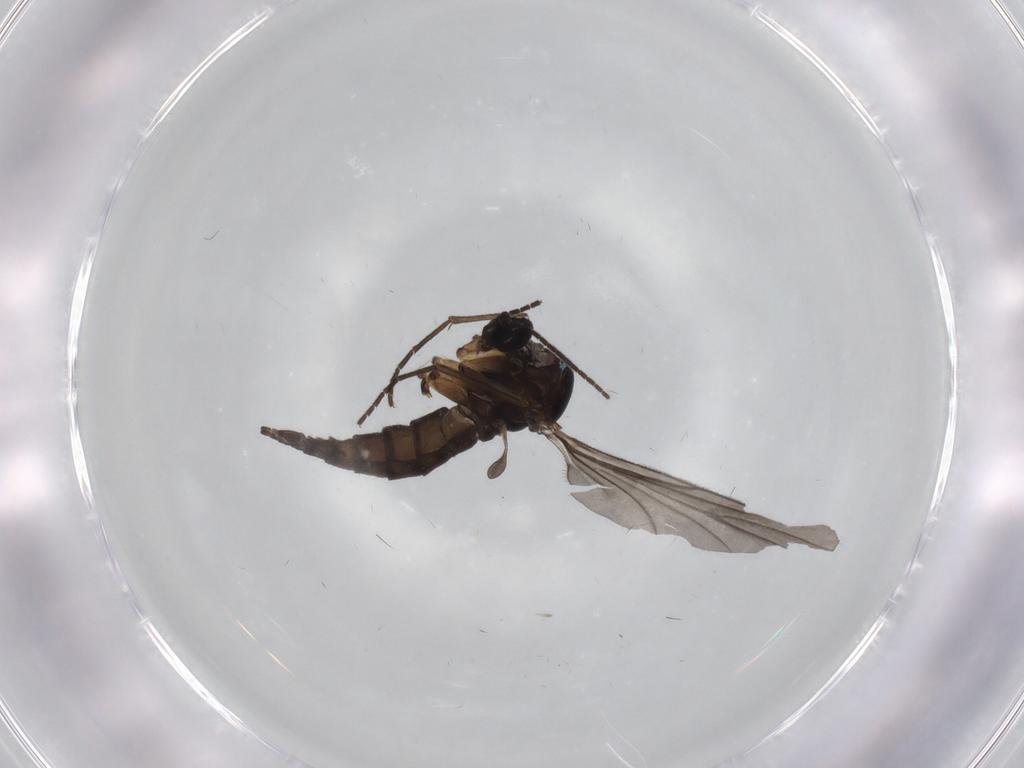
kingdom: Animalia
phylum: Arthropoda
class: Insecta
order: Diptera
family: Sciaridae
